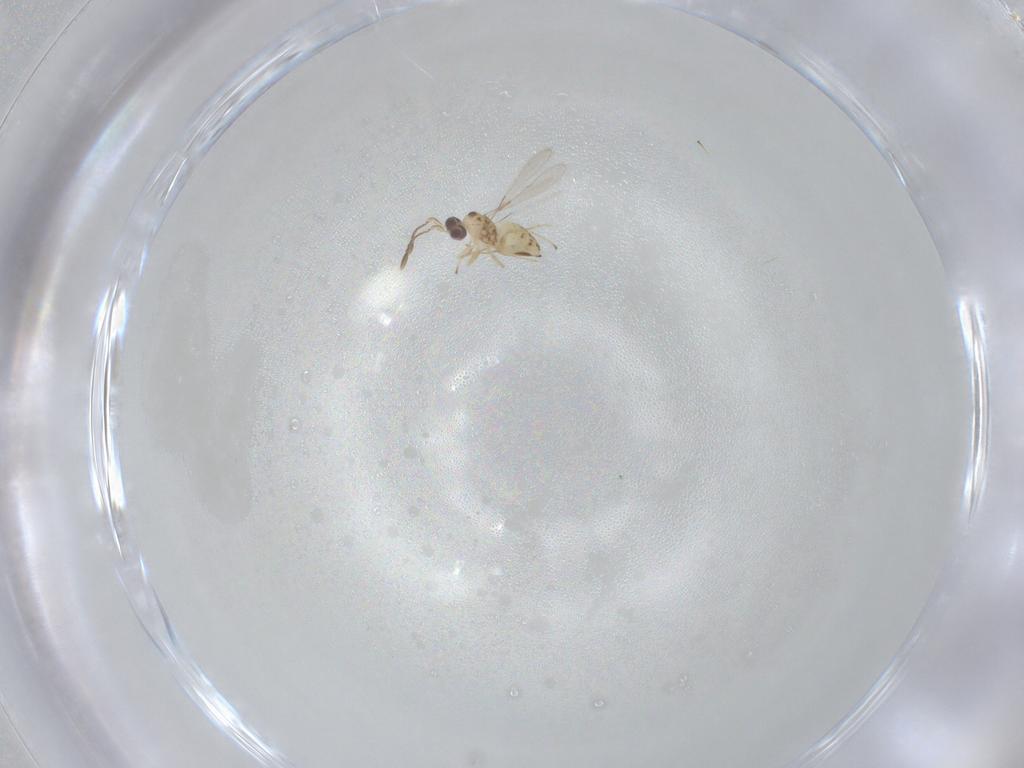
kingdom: Animalia
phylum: Arthropoda
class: Insecta
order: Hymenoptera
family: Mymaridae
